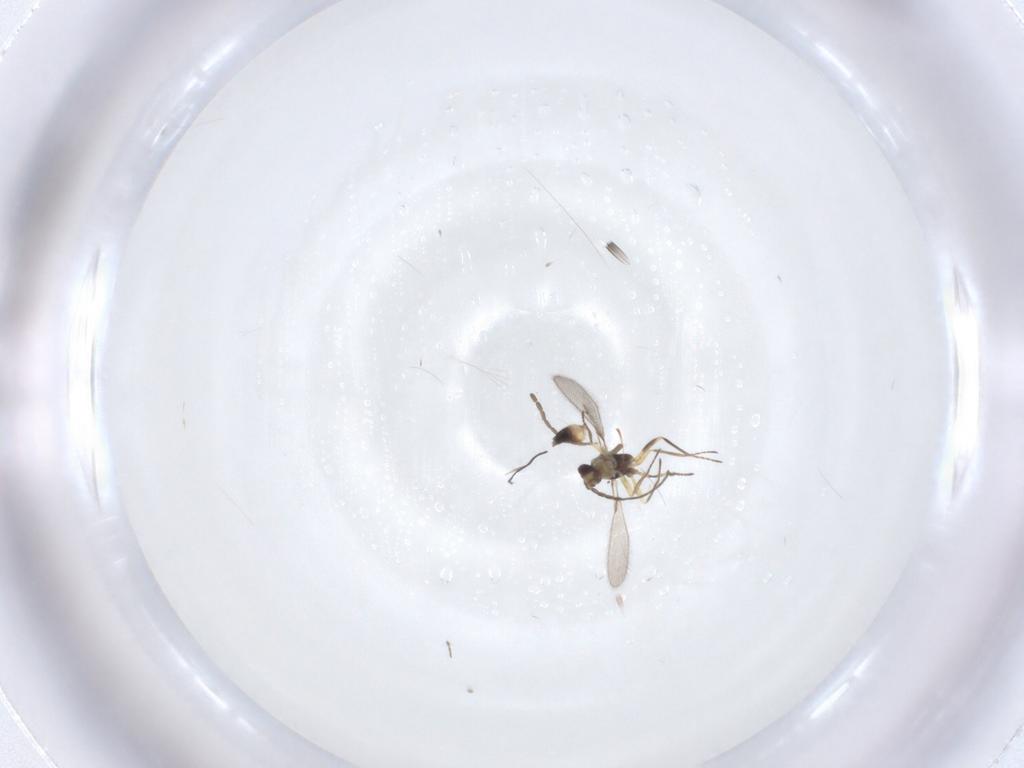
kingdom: Animalia
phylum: Arthropoda
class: Insecta
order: Hymenoptera
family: Mymaridae
